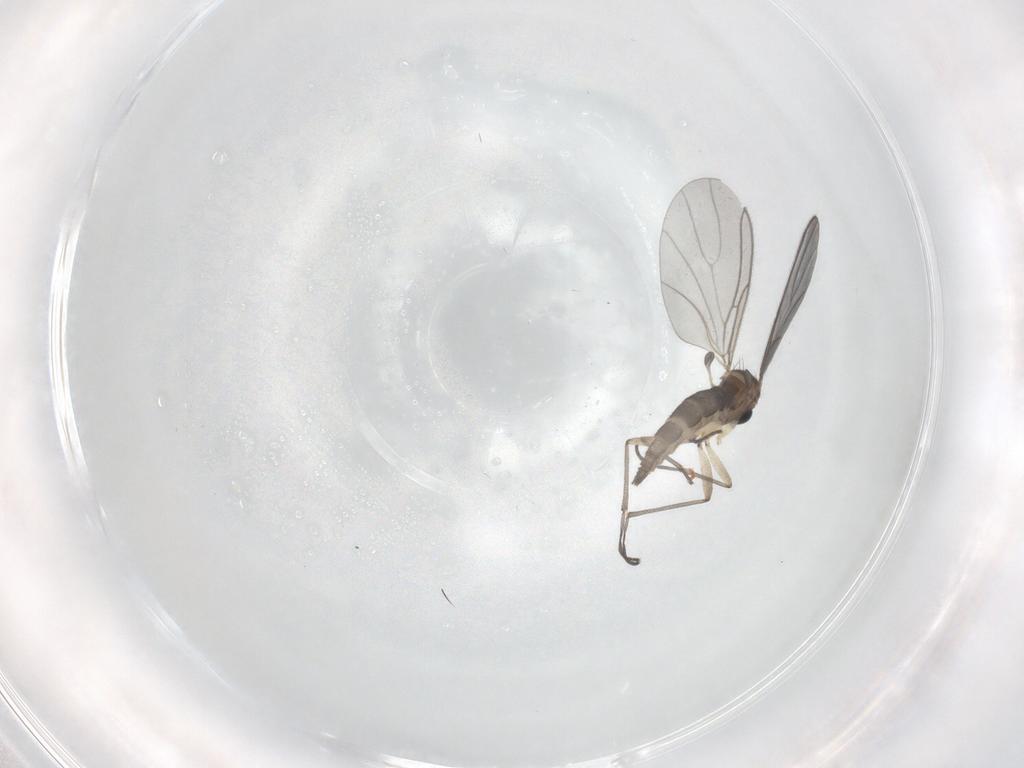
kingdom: Animalia
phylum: Arthropoda
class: Insecta
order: Diptera
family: Sciaridae
